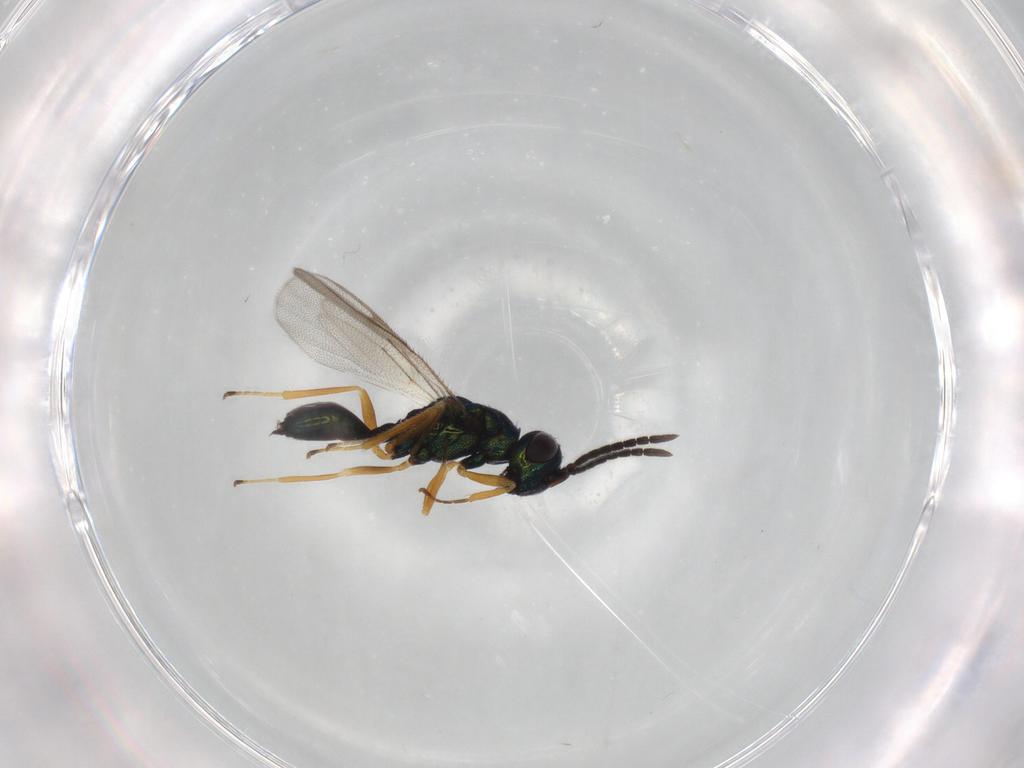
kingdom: Animalia
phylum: Arthropoda
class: Insecta
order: Hymenoptera
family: Pteromalidae
